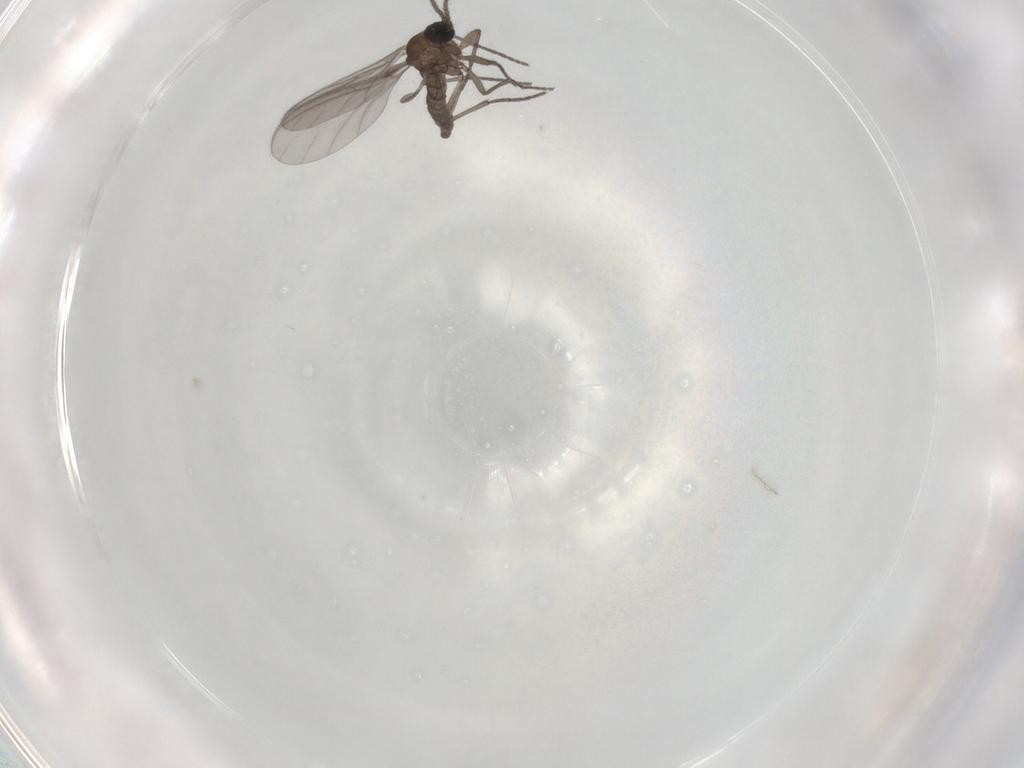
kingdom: Animalia
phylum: Arthropoda
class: Insecta
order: Diptera
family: Sciaridae
